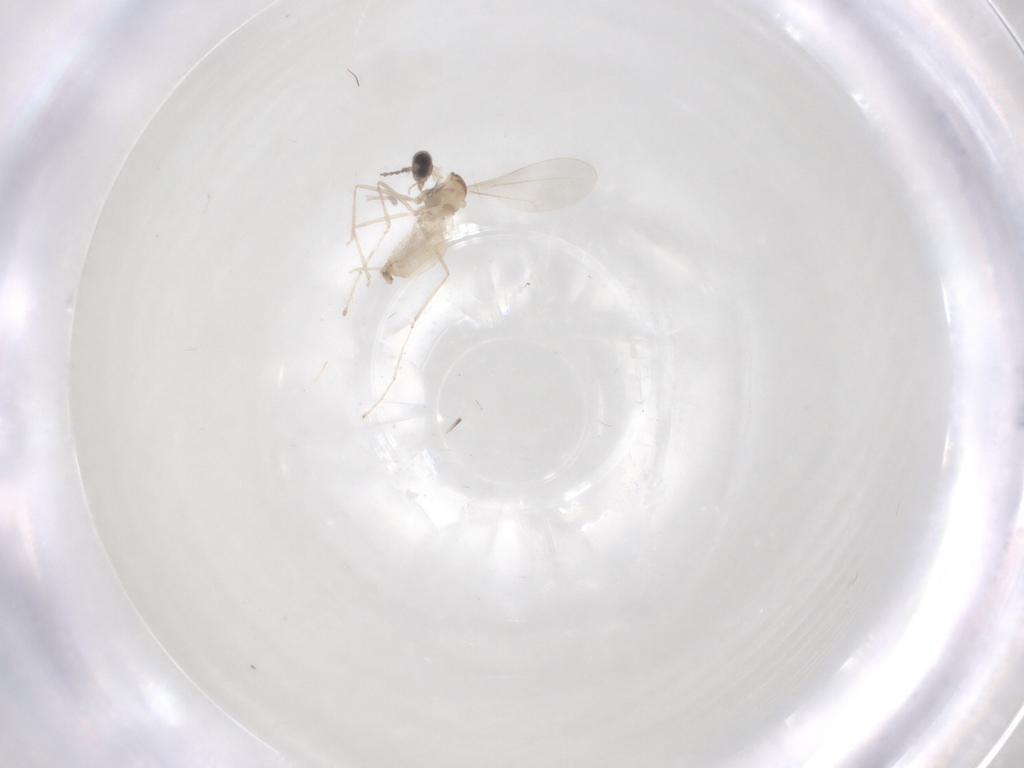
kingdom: Animalia
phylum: Arthropoda
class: Insecta
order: Diptera
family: Cecidomyiidae
